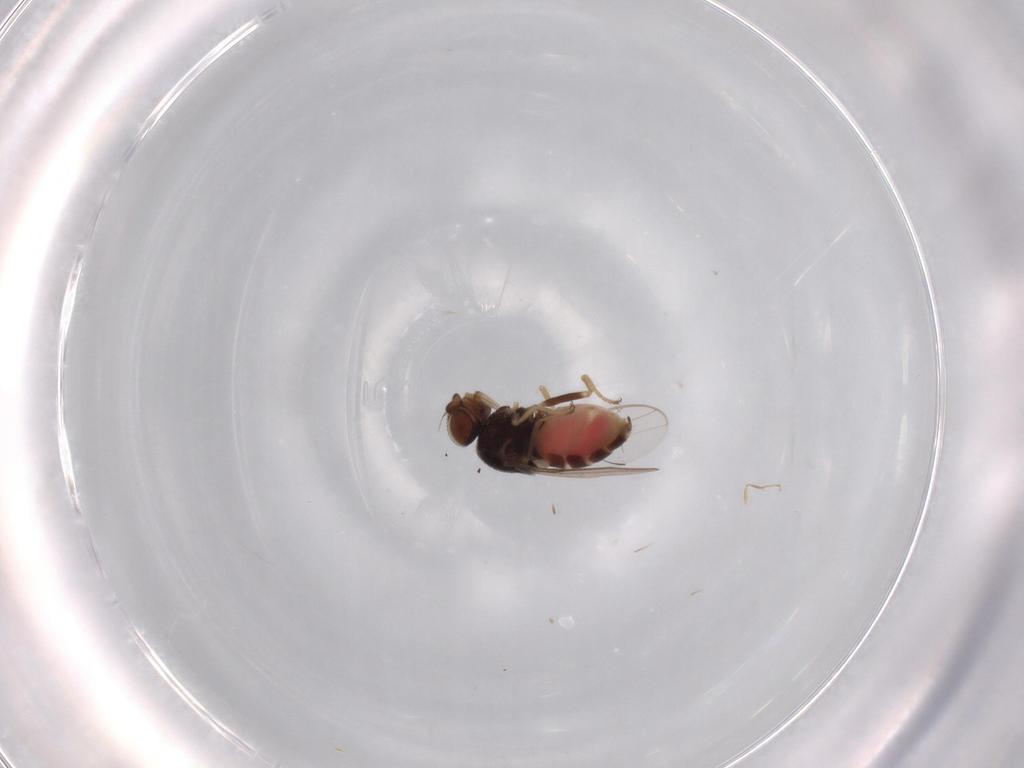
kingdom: Animalia
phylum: Arthropoda
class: Insecta
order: Diptera
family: Chloropidae
